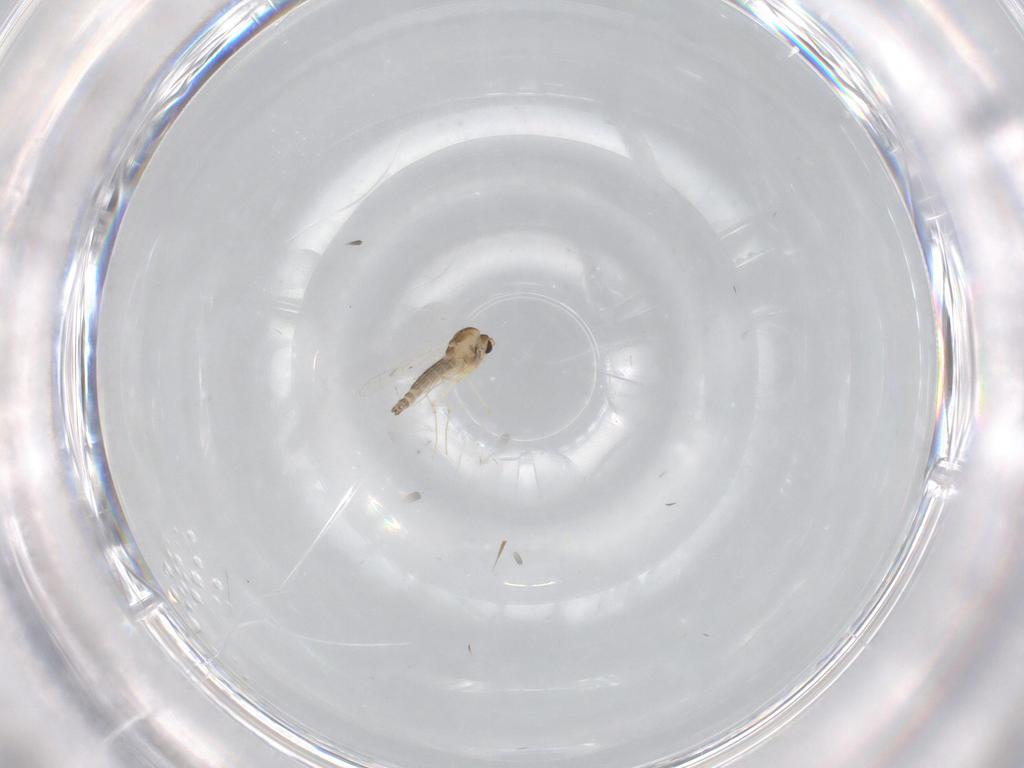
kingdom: Animalia
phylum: Arthropoda
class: Insecta
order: Diptera
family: Chironomidae
